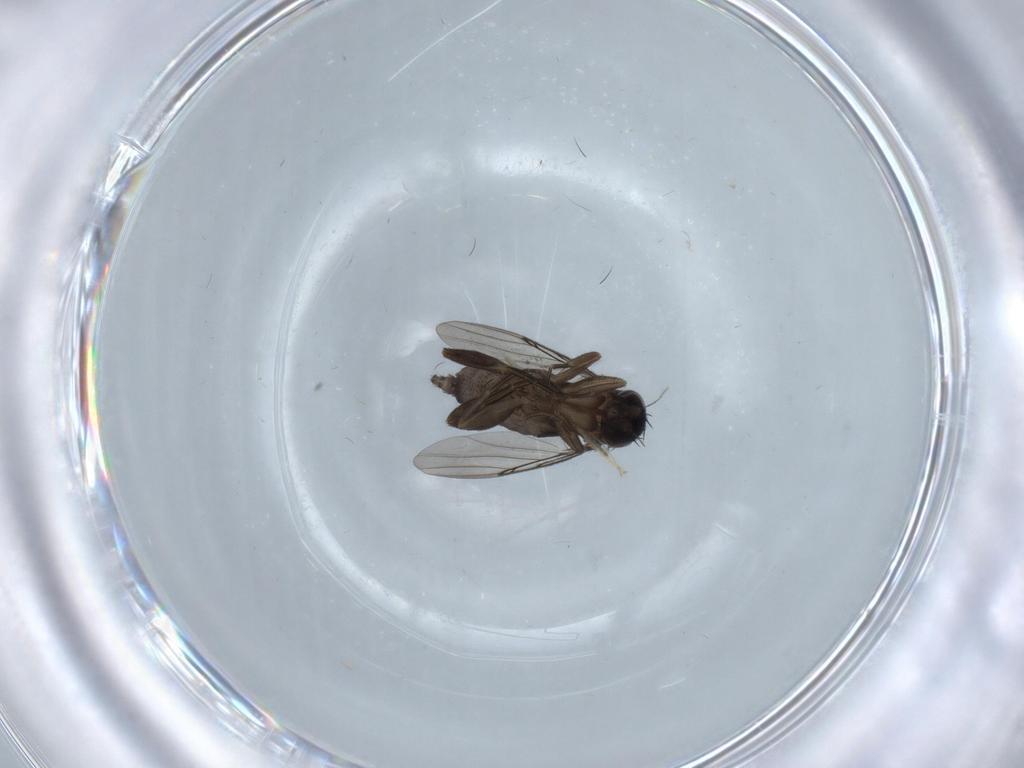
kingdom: Animalia
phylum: Arthropoda
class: Insecta
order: Diptera
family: Phoridae
